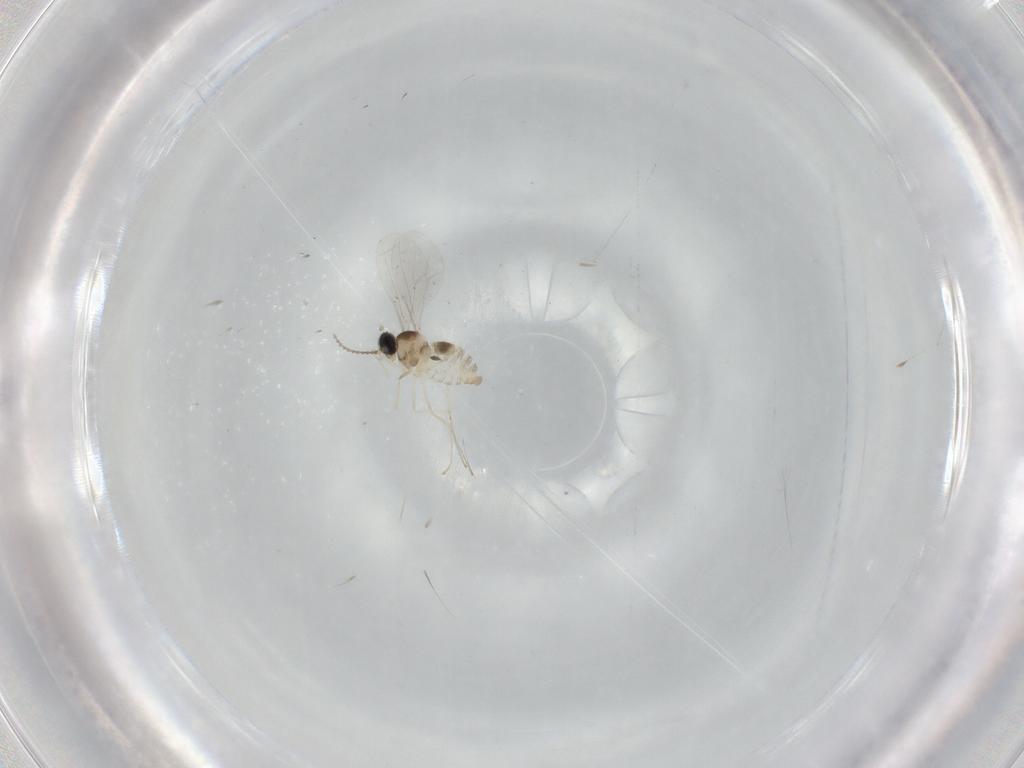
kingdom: Animalia
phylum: Arthropoda
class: Insecta
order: Diptera
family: Cecidomyiidae
